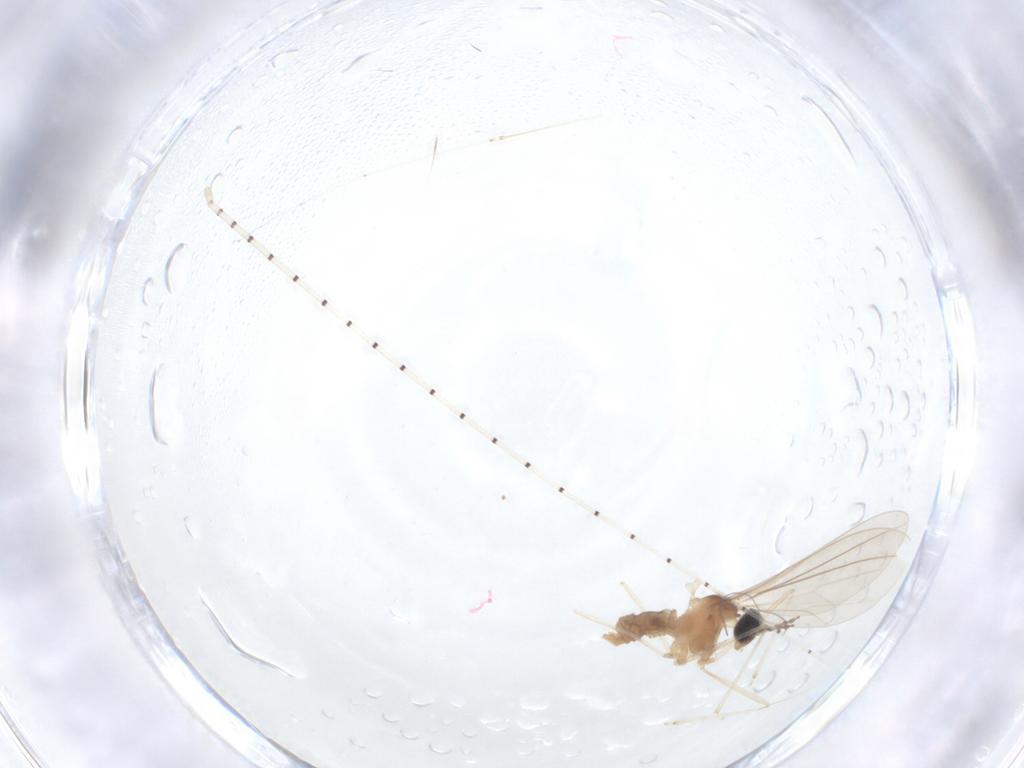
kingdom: Animalia
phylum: Arthropoda
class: Insecta
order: Diptera
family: Cecidomyiidae
